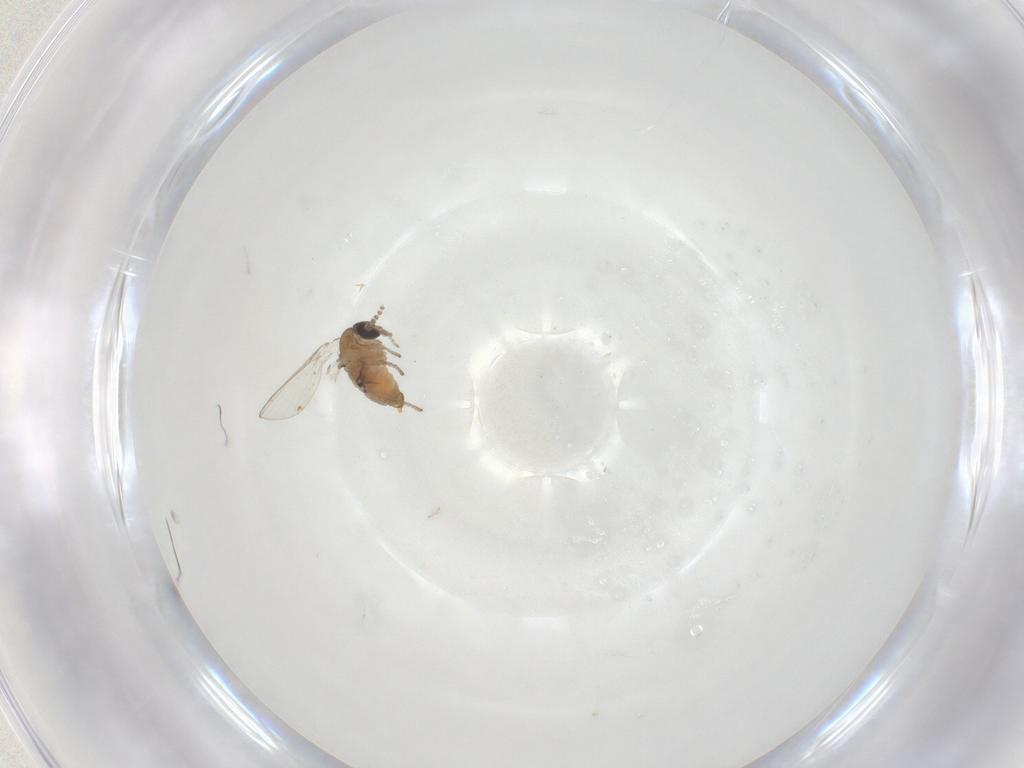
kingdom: Animalia
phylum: Arthropoda
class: Insecta
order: Diptera
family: Psychodidae
